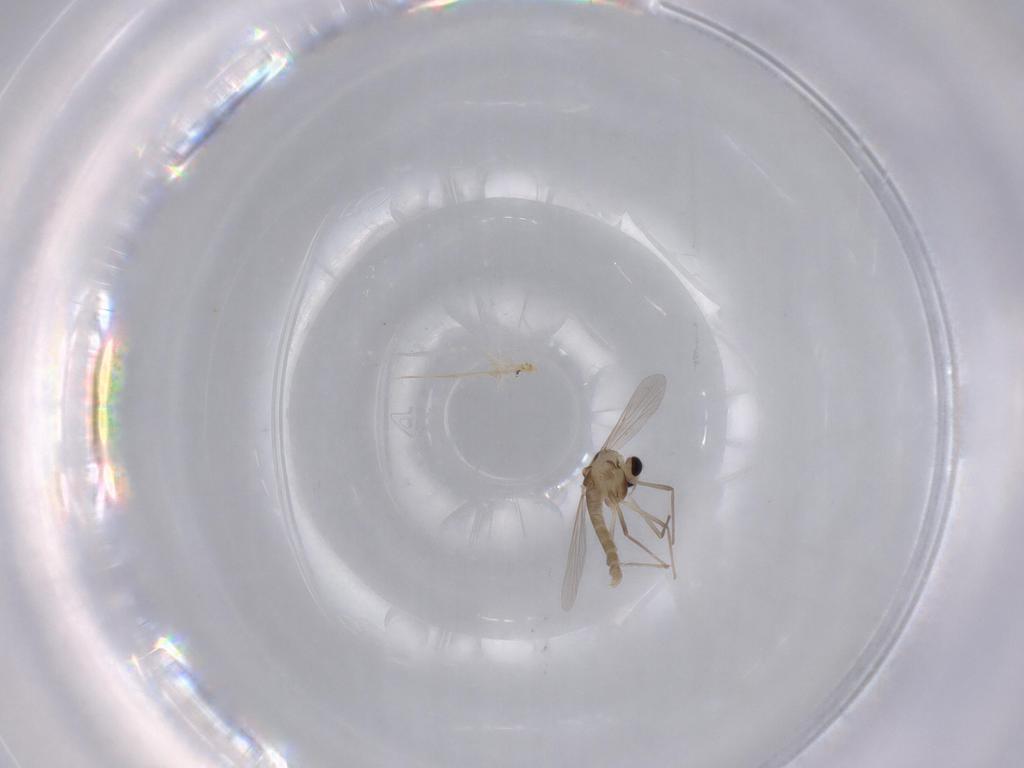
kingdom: Animalia
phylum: Arthropoda
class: Insecta
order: Diptera
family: Cecidomyiidae
